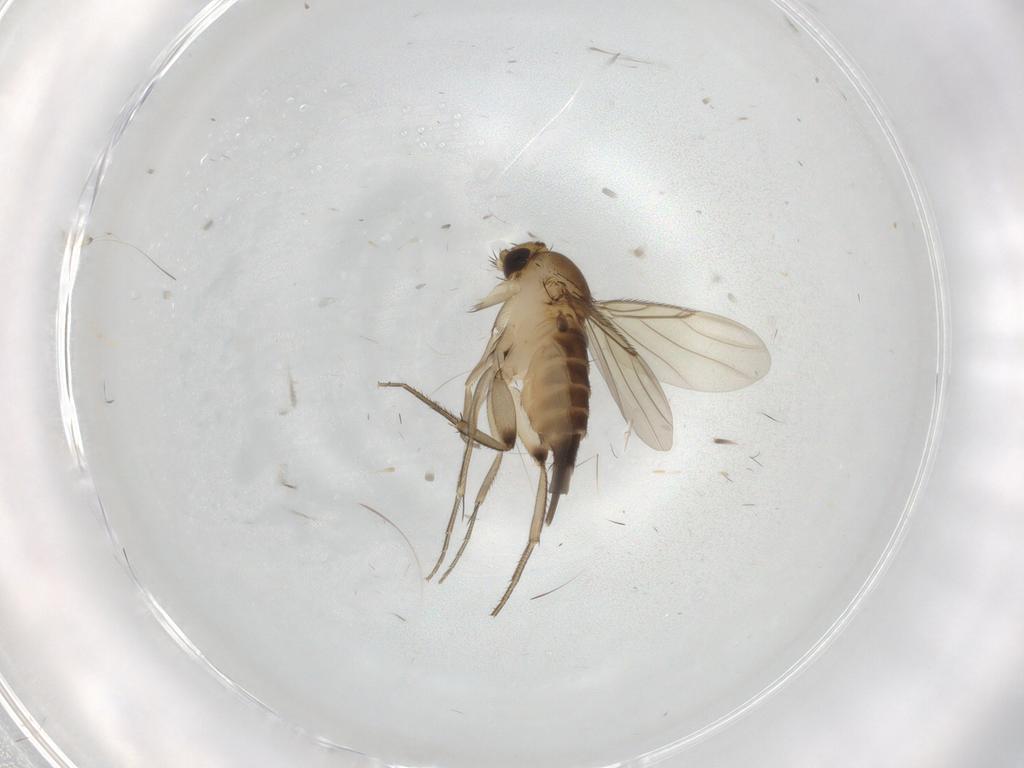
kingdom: Animalia
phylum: Arthropoda
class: Insecta
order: Diptera
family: Phoridae
